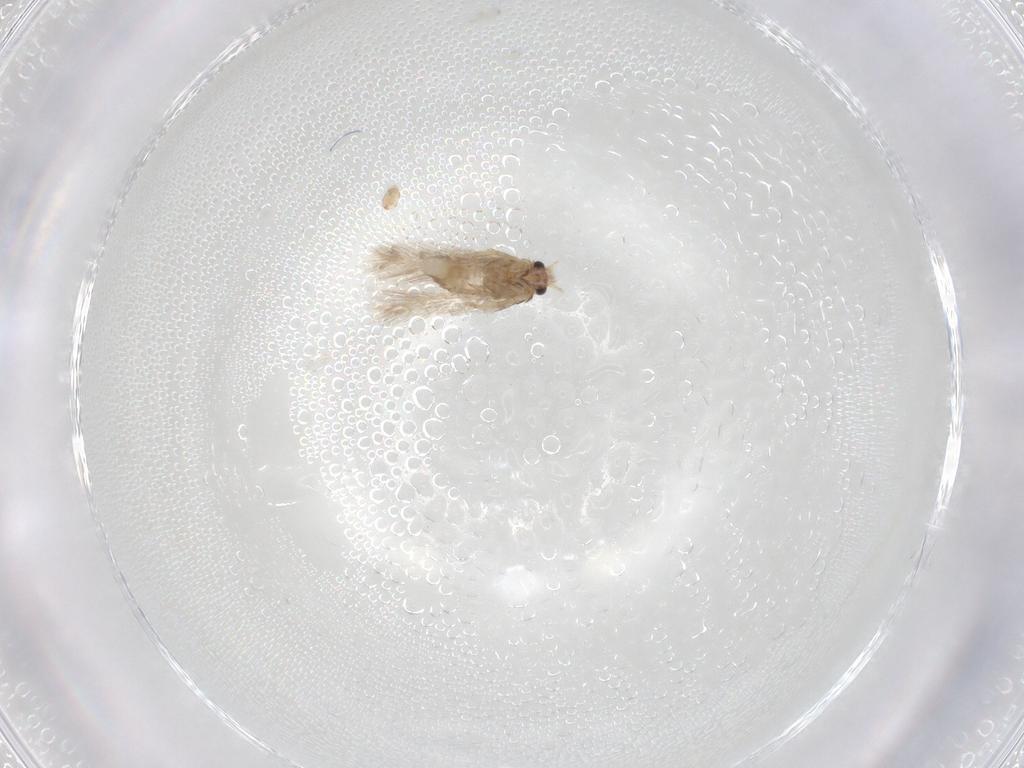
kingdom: Animalia
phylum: Arthropoda
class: Insecta
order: Lepidoptera
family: Nepticulidae
